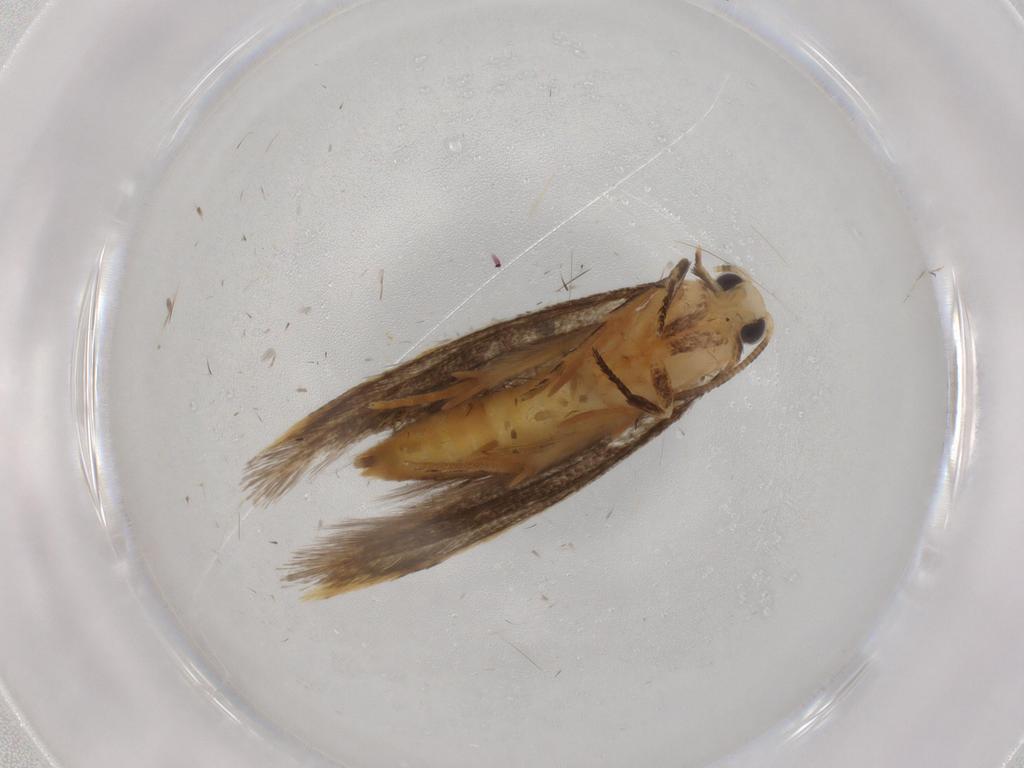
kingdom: Animalia
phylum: Arthropoda
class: Insecta
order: Lepidoptera
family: Tineidae
